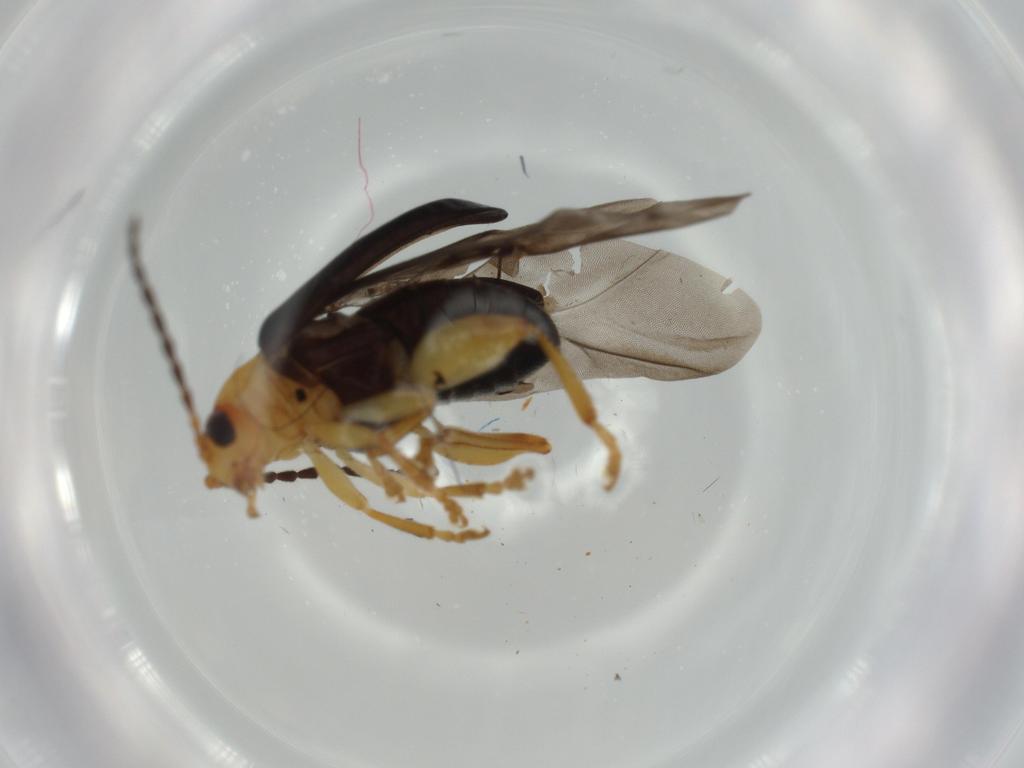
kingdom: Animalia
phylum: Arthropoda
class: Insecta
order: Coleoptera
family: Chrysomelidae
